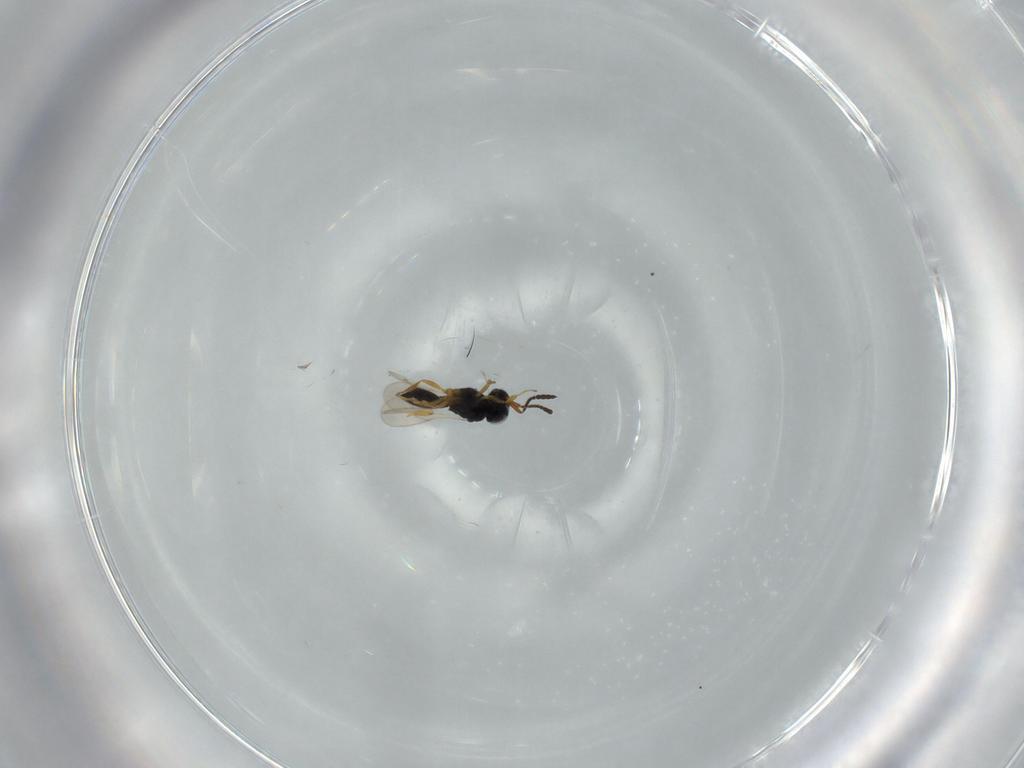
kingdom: Animalia
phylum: Arthropoda
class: Insecta
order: Hymenoptera
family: Scelionidae
